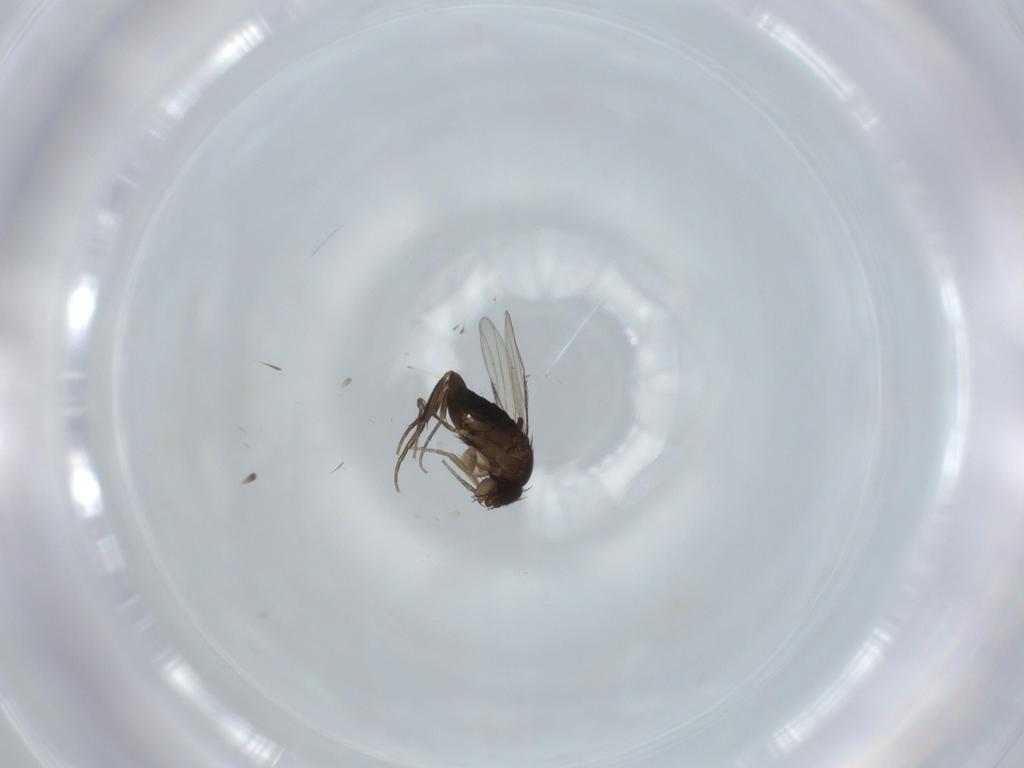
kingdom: Animalia
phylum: Arthropoda
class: Insecta
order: Diptera
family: Phoridae
